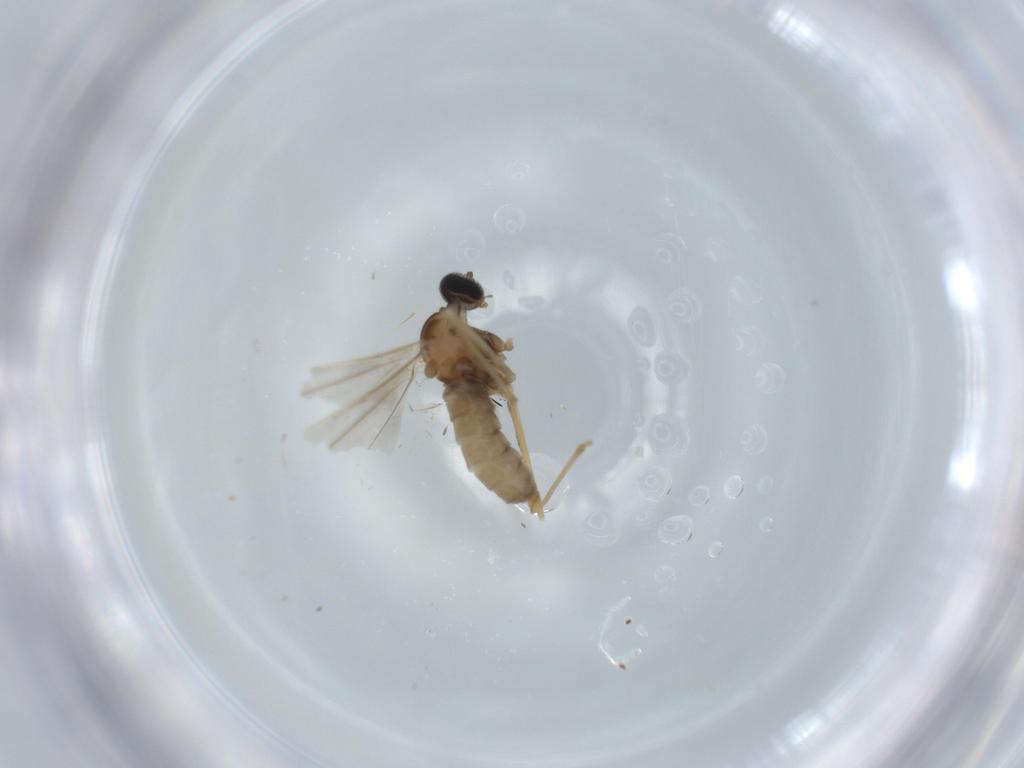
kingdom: Animalia
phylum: Arthropoda
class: Insecta
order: Diptera
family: Cecidomyiidae
